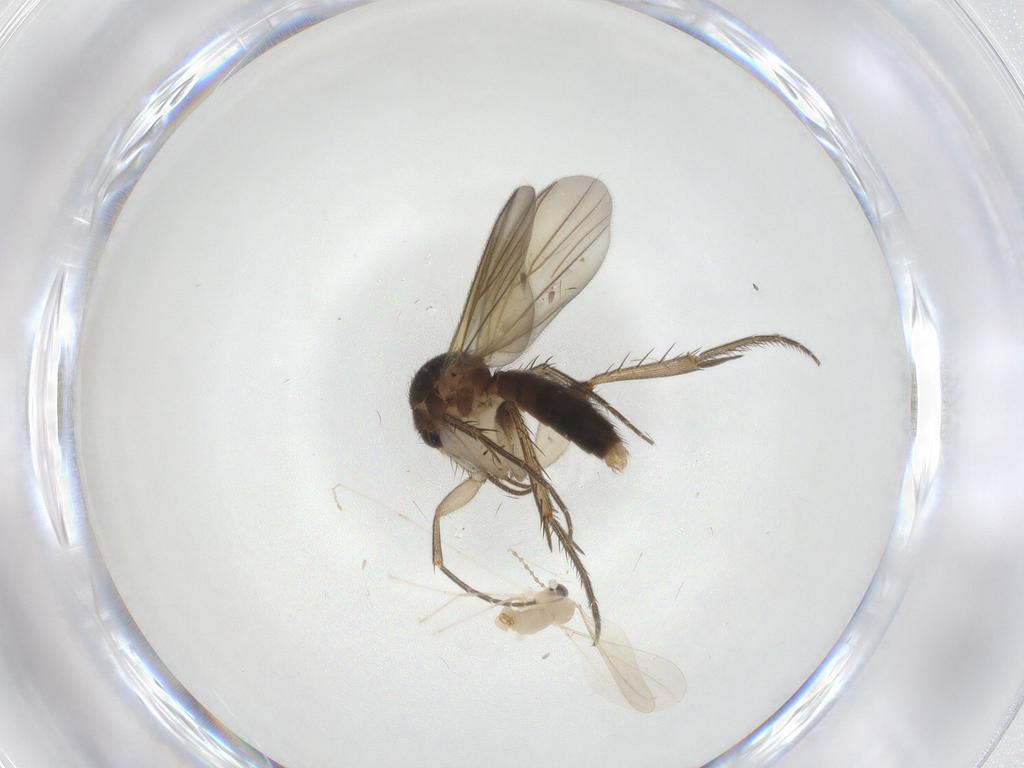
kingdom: Animalia
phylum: Arthropoda
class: Insecta
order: Diptera
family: Cecidomyiidae
